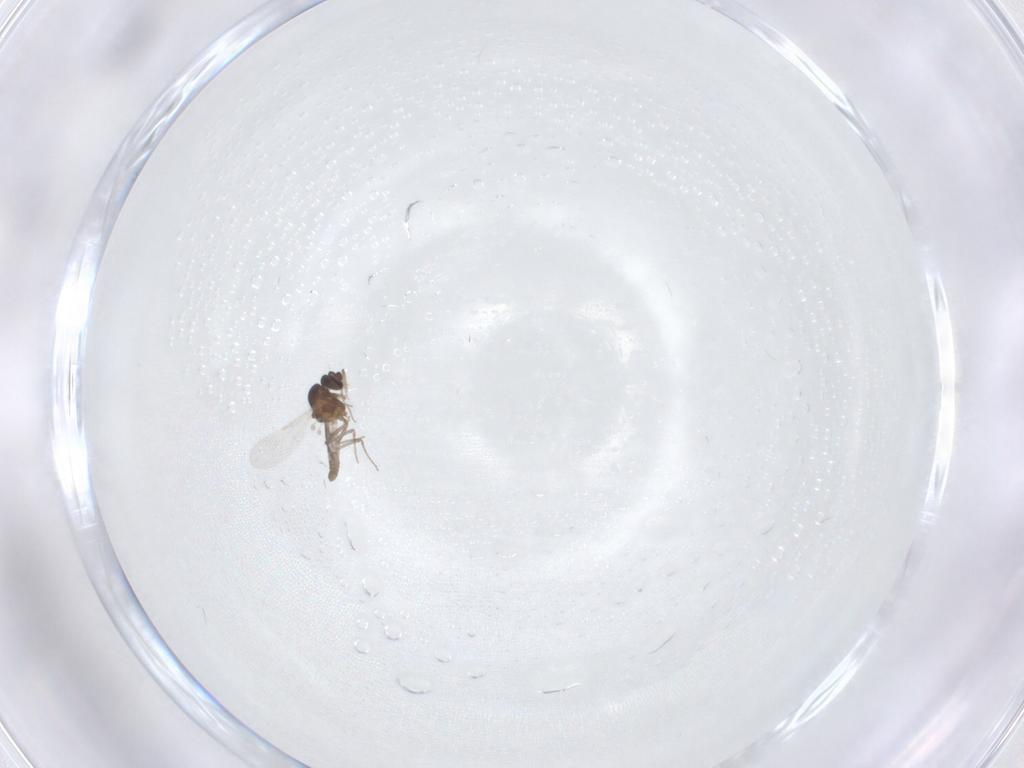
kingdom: Animalia
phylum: Arthropoda
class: Insecta
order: Diptera
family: Ceratopogonidae
